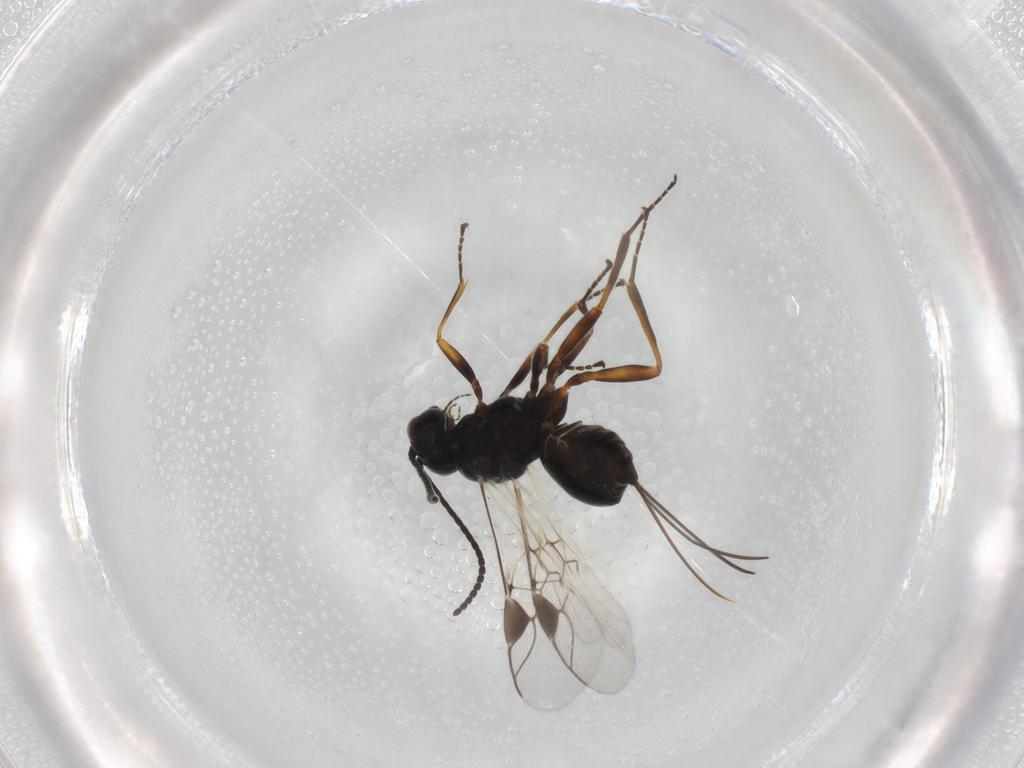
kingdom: Animalia
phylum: Arthropoda
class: Insecta
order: Hymenoptera
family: Braconidae
